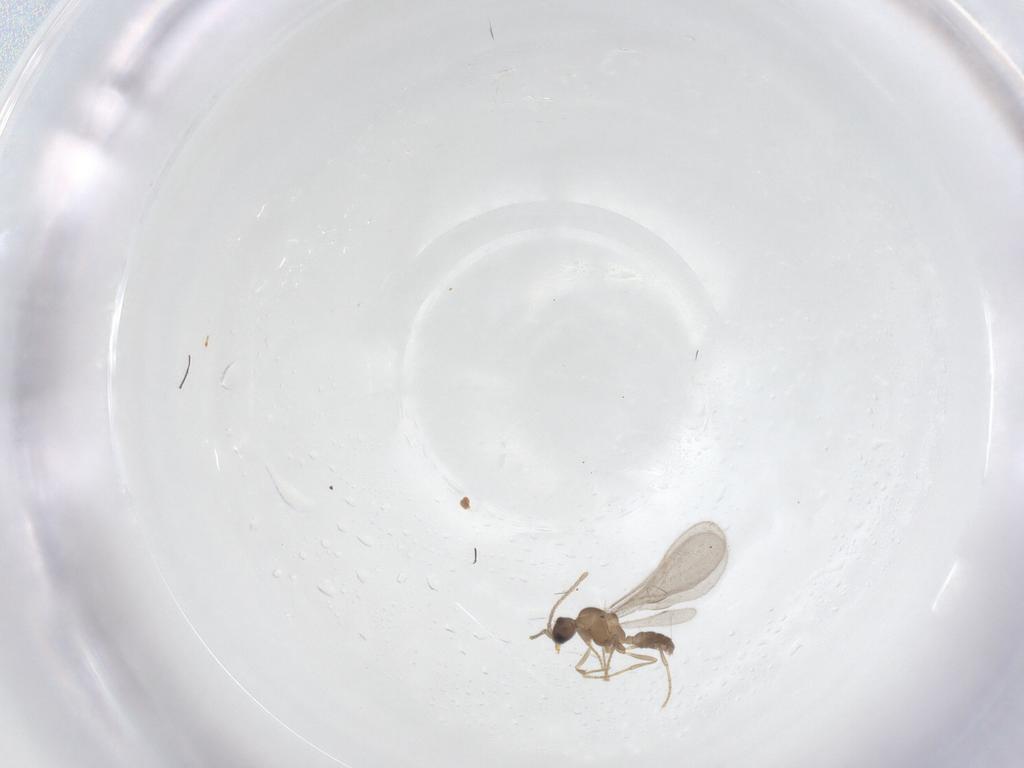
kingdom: Animalia
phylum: Arthropoda
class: Insecta
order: Hymenoptera
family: Formicidae
